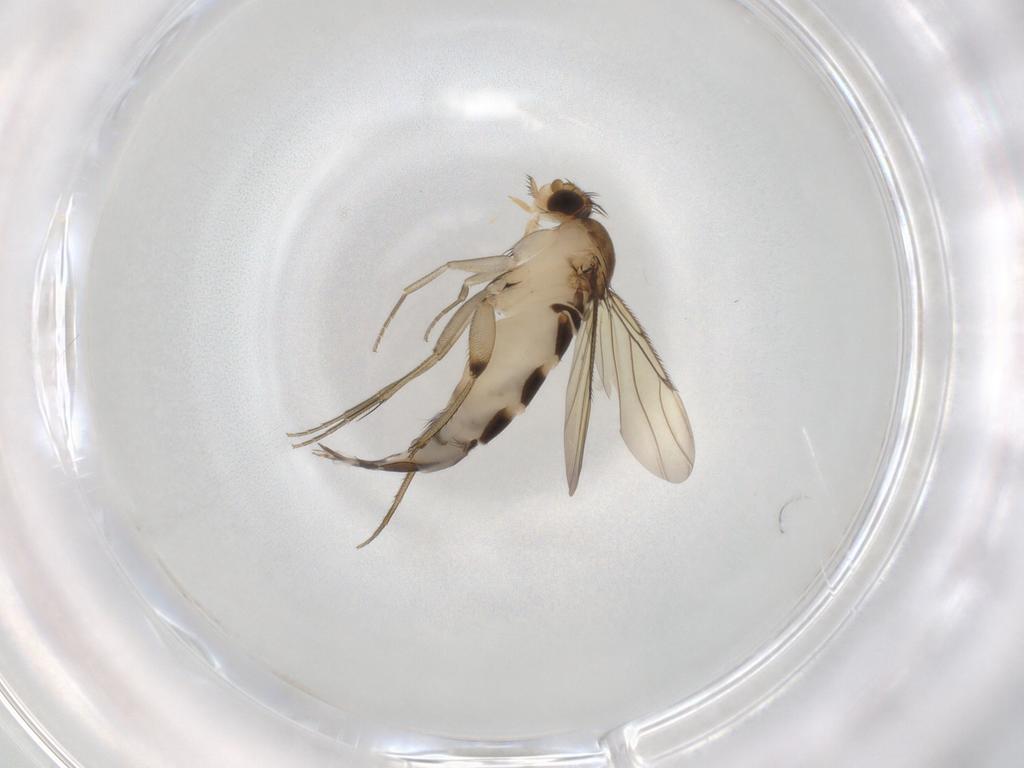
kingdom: Animalia
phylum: Arthropoda
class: Insecta
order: Diptera
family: Phoridae
